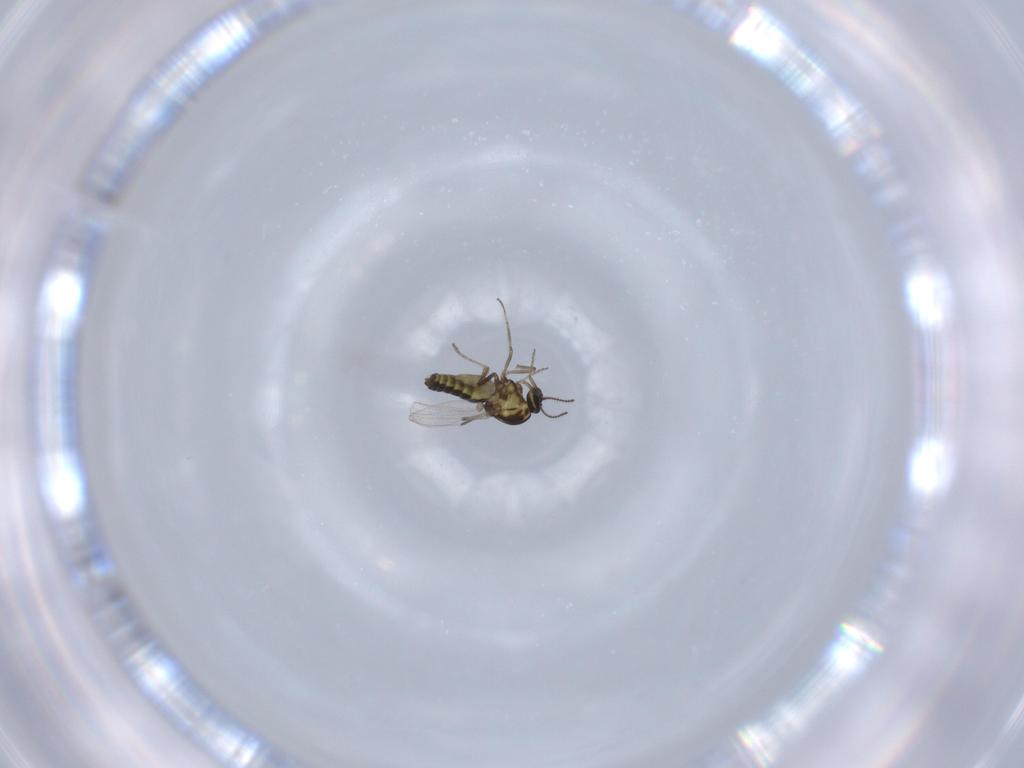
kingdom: Animalia
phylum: Arthropoda
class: Insecta
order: Diptera
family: Ceratopogonidae
